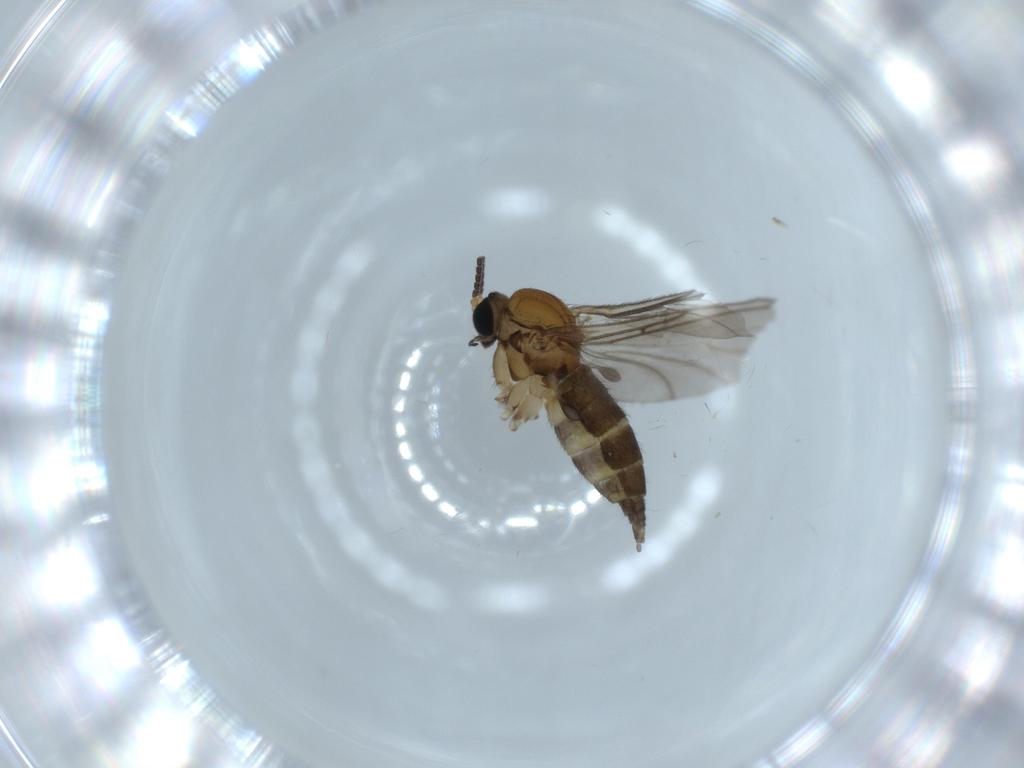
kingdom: Animalia
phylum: Arthropoda
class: Insecta
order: Diptera
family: Sciaridae
